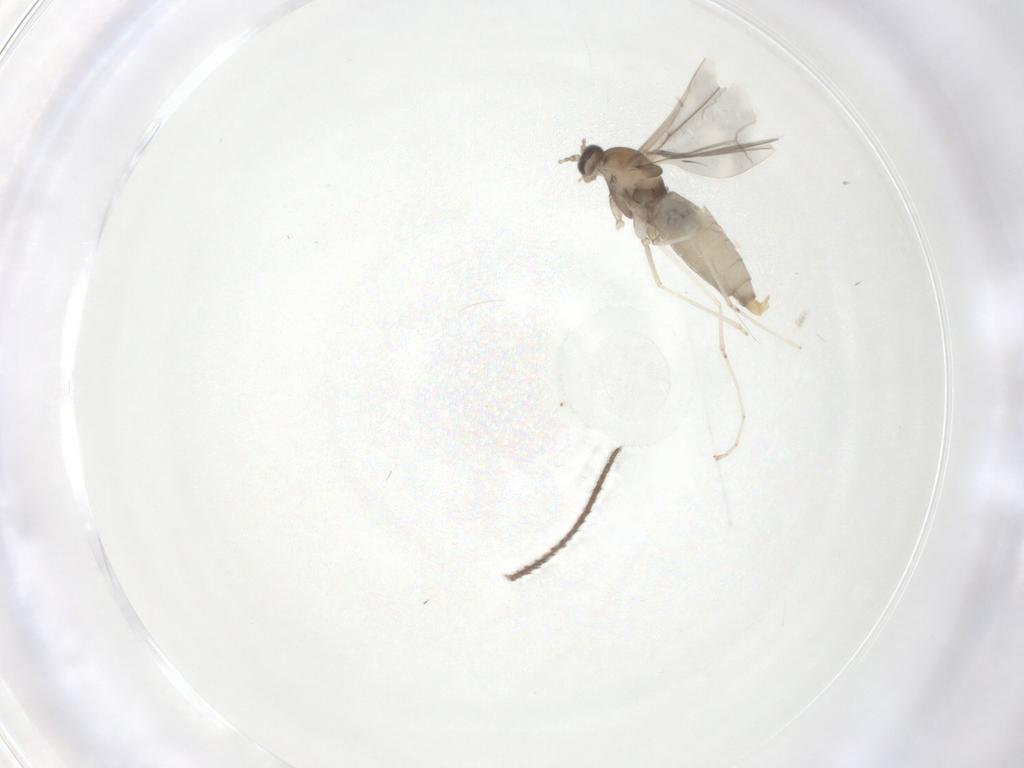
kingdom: Animalia
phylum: Arthropoda
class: Insecta
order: Diptera
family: Cecidomyiidae
